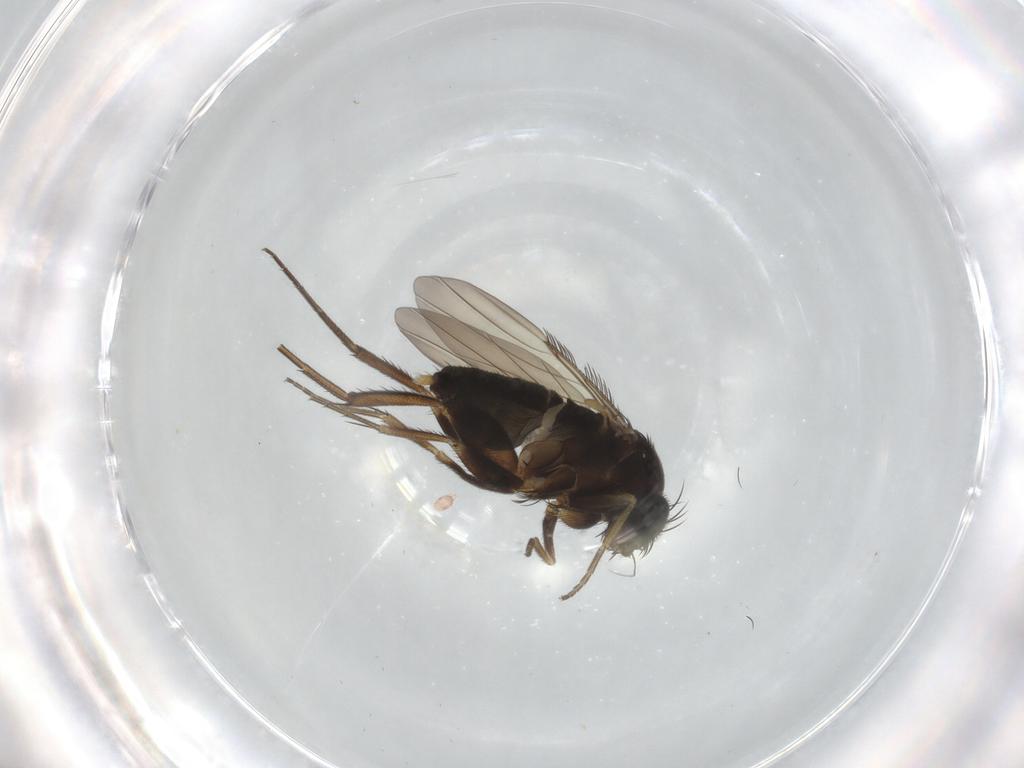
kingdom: Animalia
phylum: Arthropoda
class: Insecta
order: Diptera
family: Phoridae
